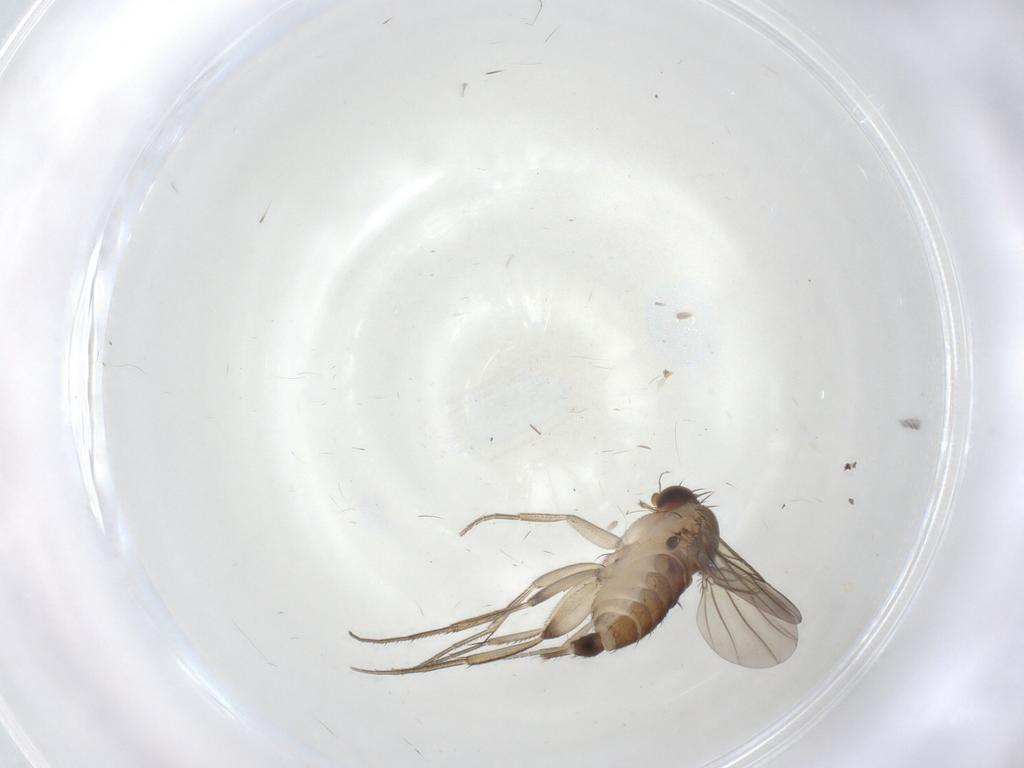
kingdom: Animalia
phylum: Arthropoda
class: Insecta
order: Diptera
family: Phoridae
